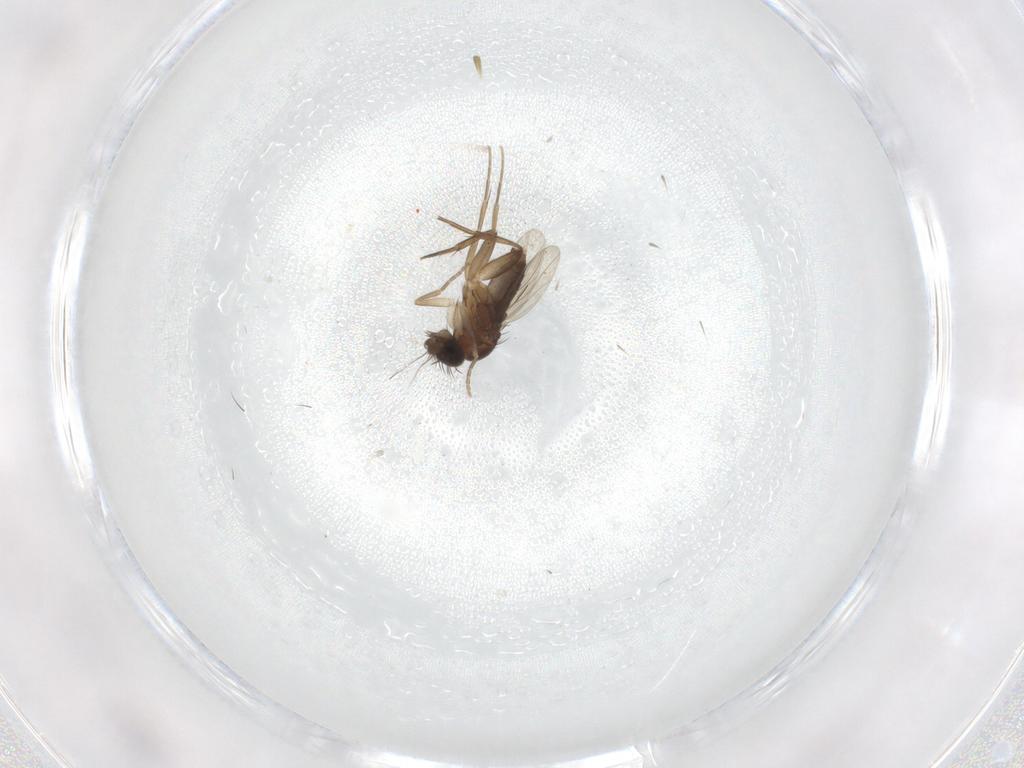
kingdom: Animalia
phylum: Arthropoda
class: Insecta
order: Diptera
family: Phoridae
